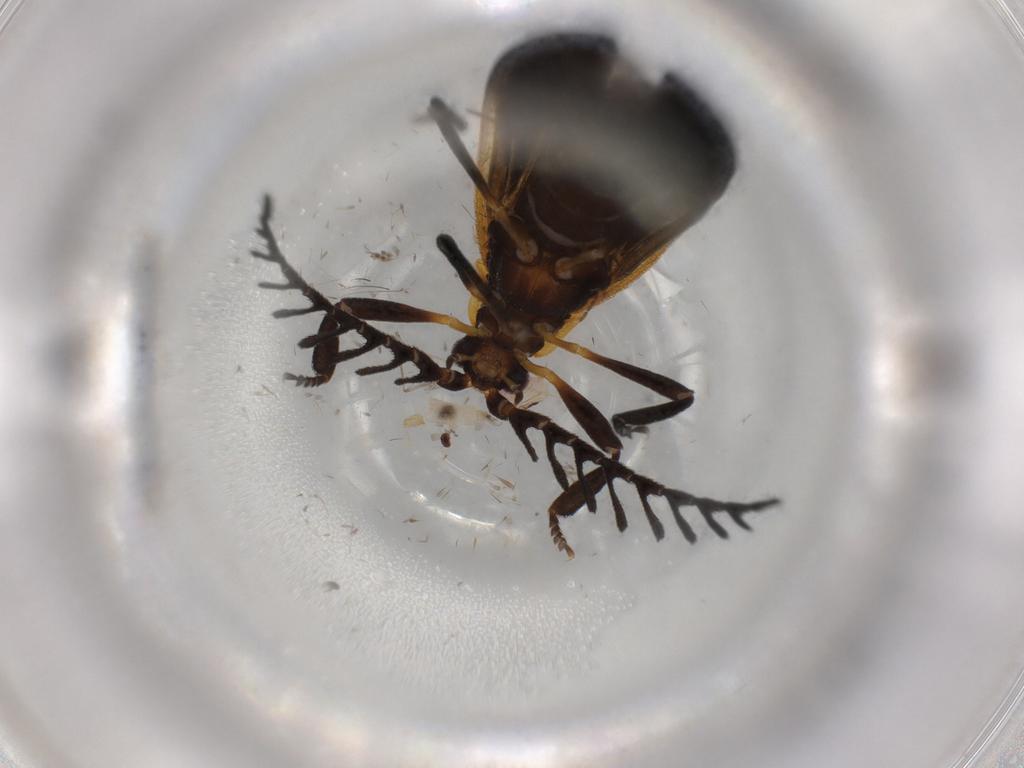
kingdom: Animalia
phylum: Arthropoda
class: Insecta
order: Coleoptera
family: Lycidae
